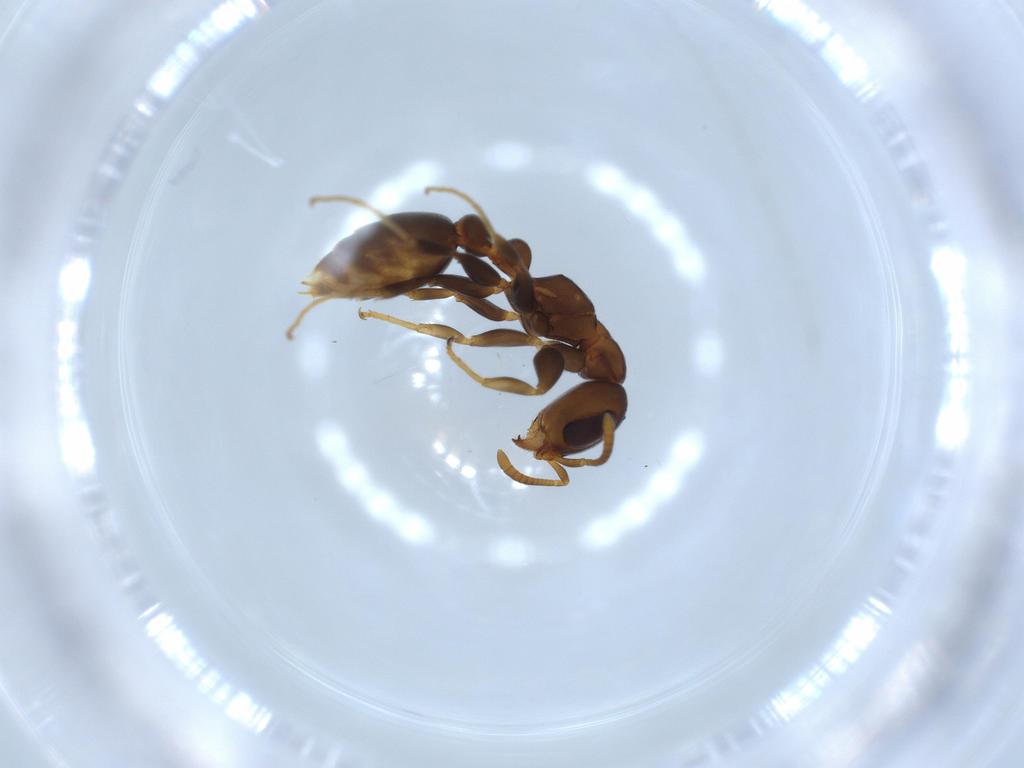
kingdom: Animalia
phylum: Arthropoda
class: Insecta
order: Hymenoptera
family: Formicidae
